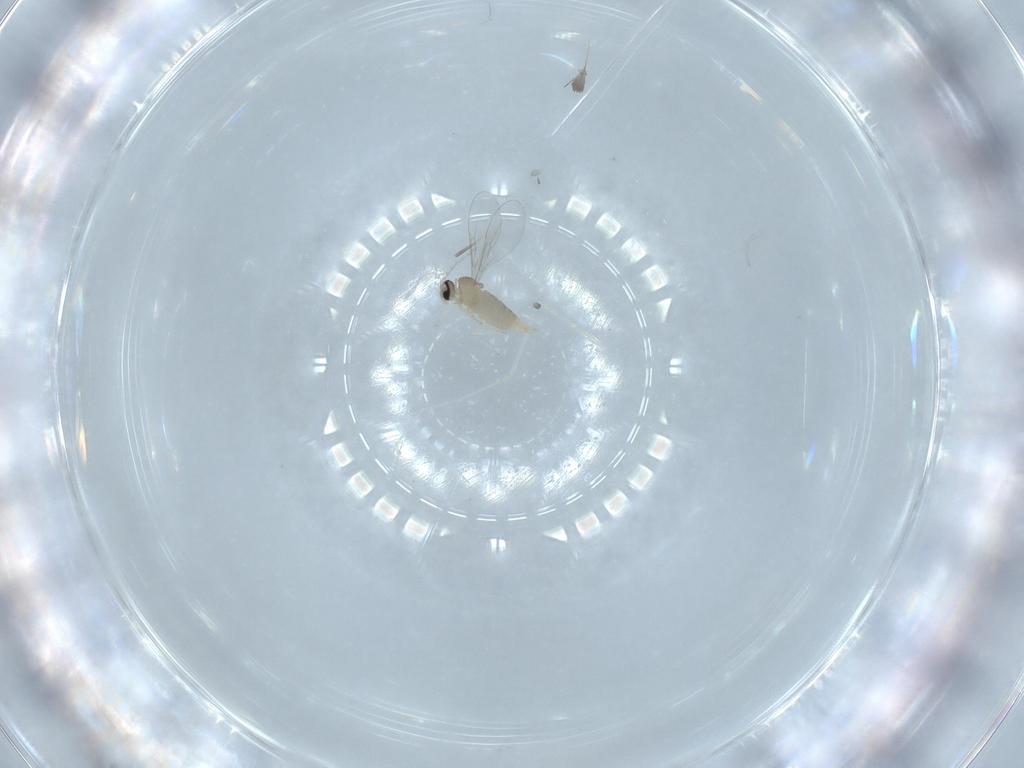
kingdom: Animalia
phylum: Arthropoda
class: Insecta
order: Diptera
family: Cecidomyiidae
